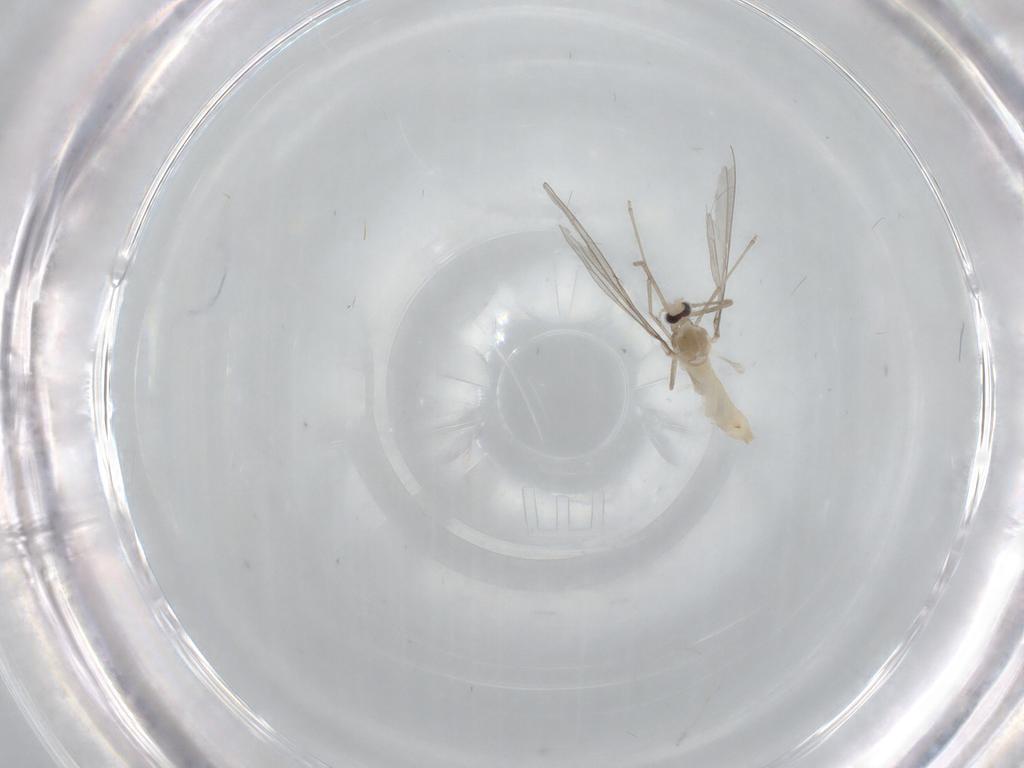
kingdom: Animalia
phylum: Arthropoda
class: Insecta
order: Diptera
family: Cecidomyiidae
